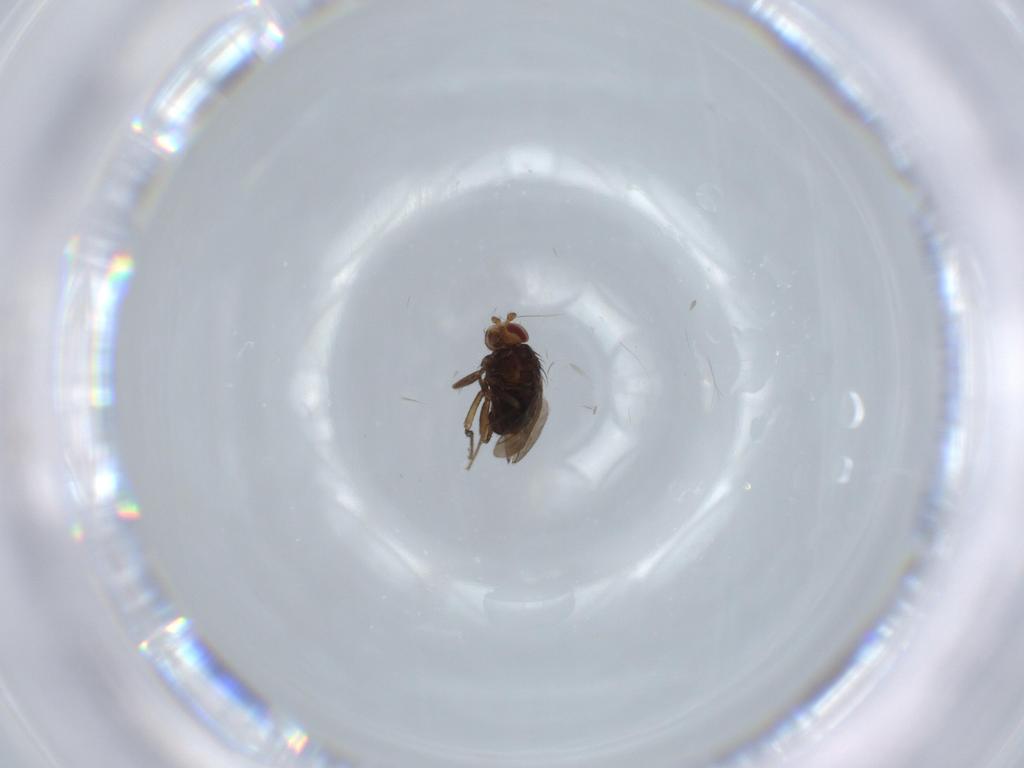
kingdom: Animalia
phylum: Arthropoda
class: Insecta
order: Diptera
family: Sphaeroceridae
